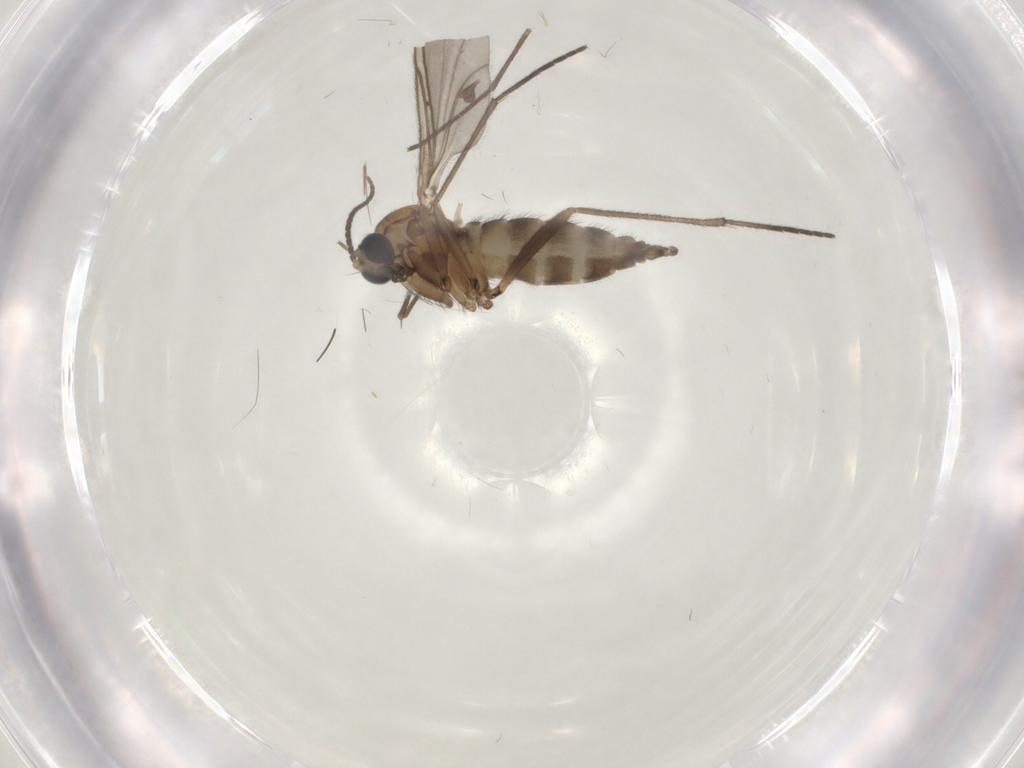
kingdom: Animalia
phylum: Arthropoda
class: Insecta
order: Diptera
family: Sciaridae
